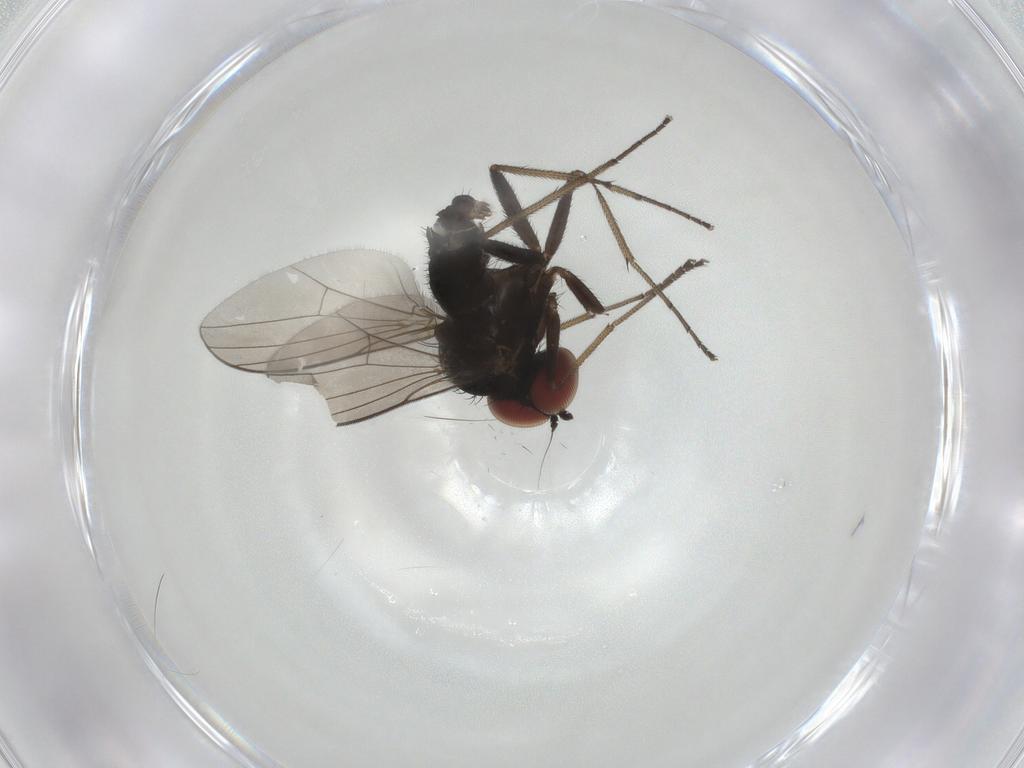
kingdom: Animalia
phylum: Arthropoda
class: Insecta
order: Diptera
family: Dolichopodidae
